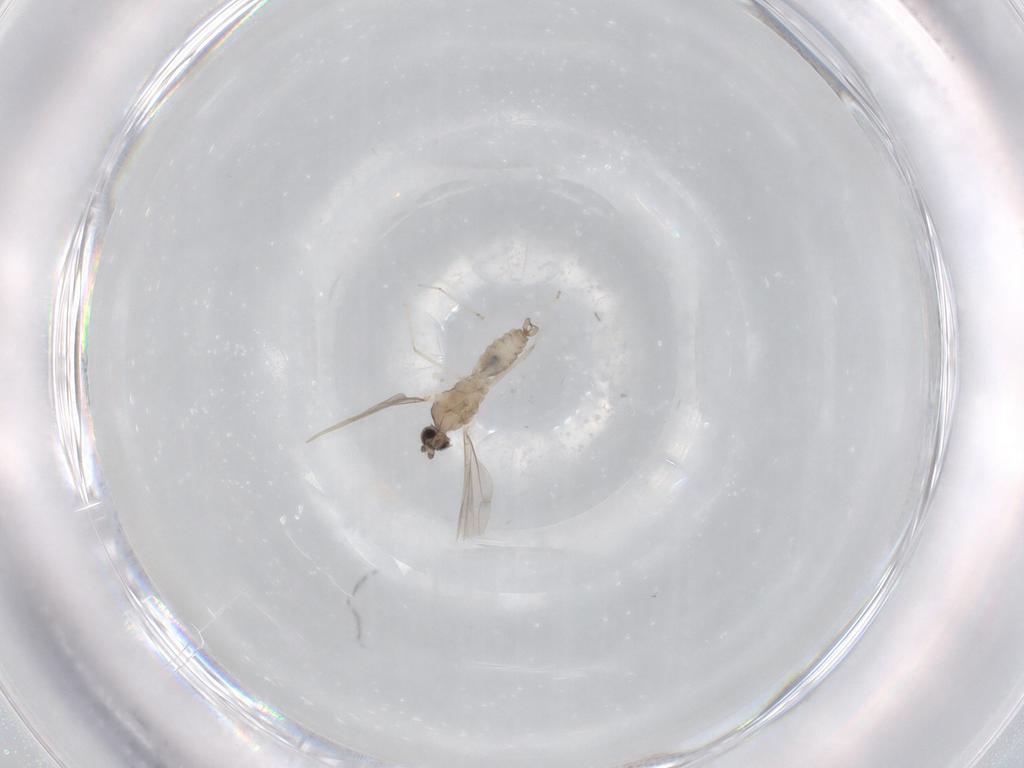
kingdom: Animalia
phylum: Arthropoda
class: Insecta
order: Diptera
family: Cecidomyiidae
